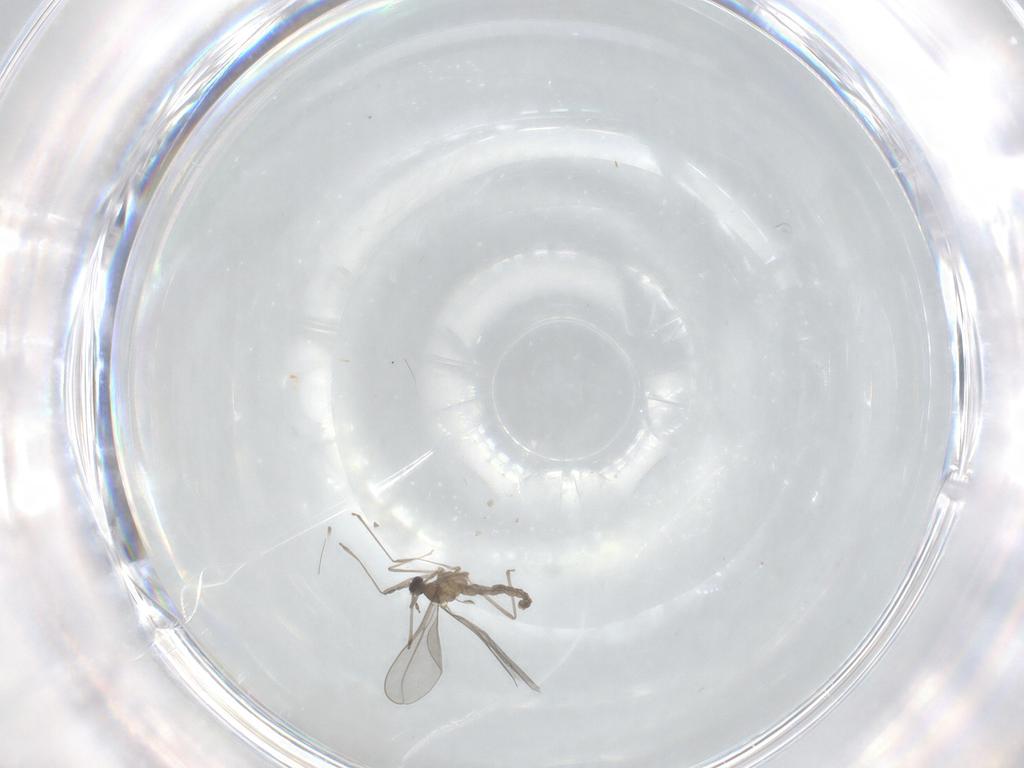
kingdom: Animalia
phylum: Arthropoda
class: Insecta
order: Diptera
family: Cecidomyiidae
